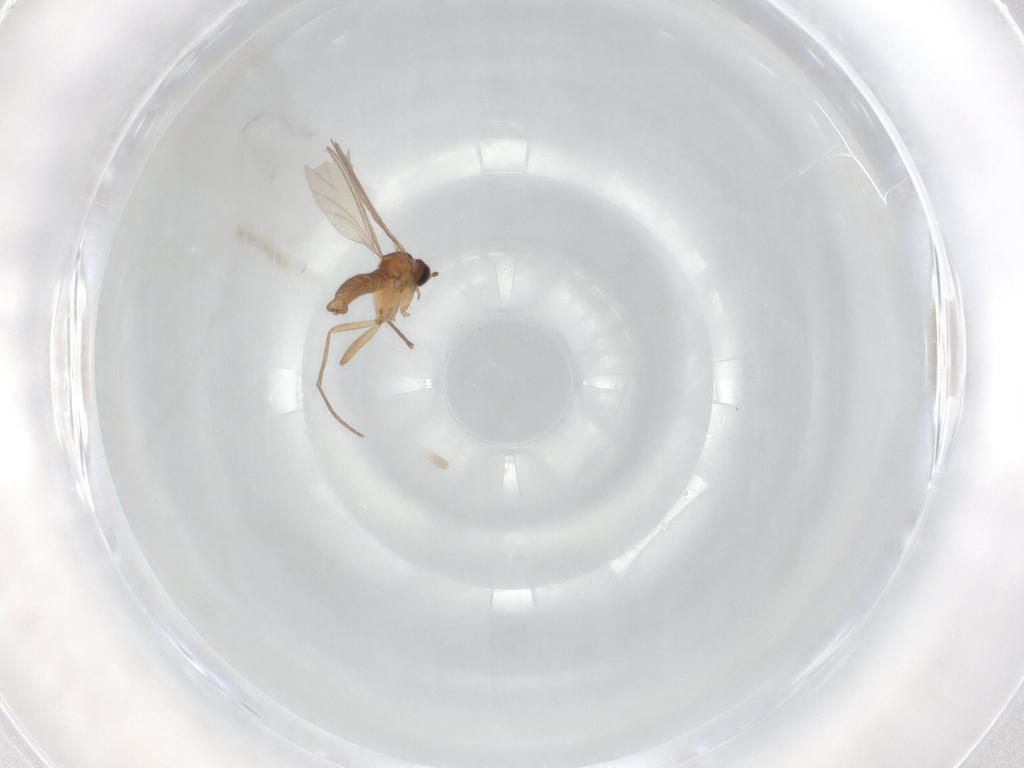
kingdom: Animalia
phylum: Arthropoda
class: Insecta
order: Diptera
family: Sciaridae
